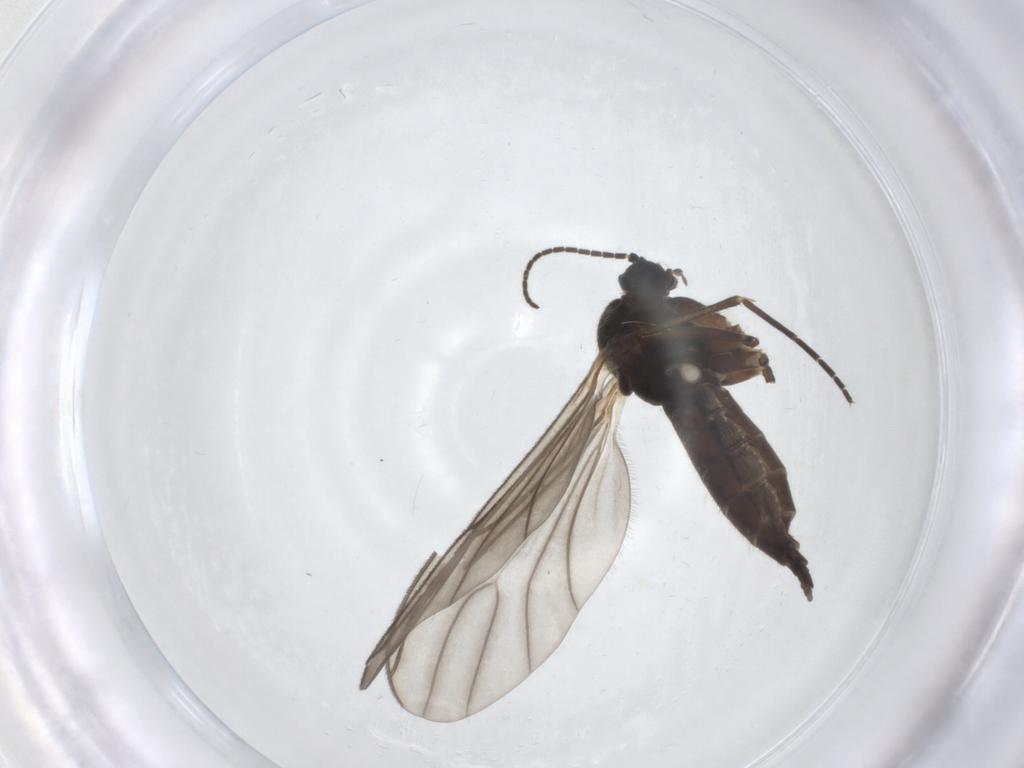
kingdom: Animalia
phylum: Arthropoda
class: Insecta
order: Diptera
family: Sciaridae
